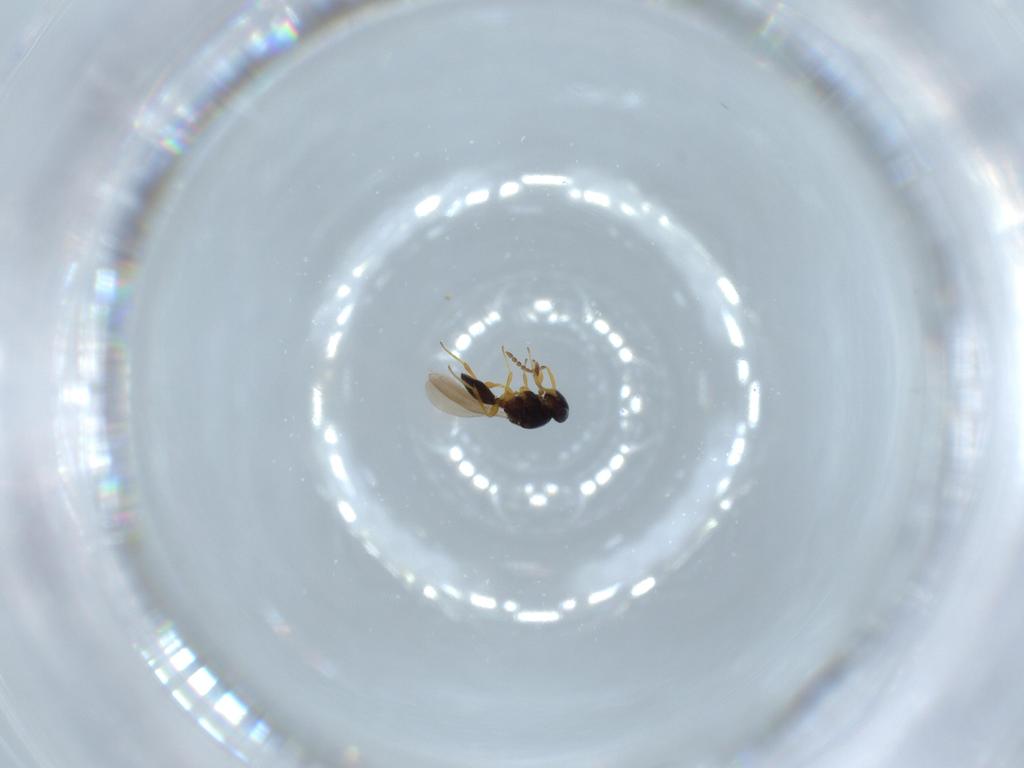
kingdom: Animalia
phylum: Arthropoda
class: Insecta
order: Hymenoptera
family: Platygastridae
